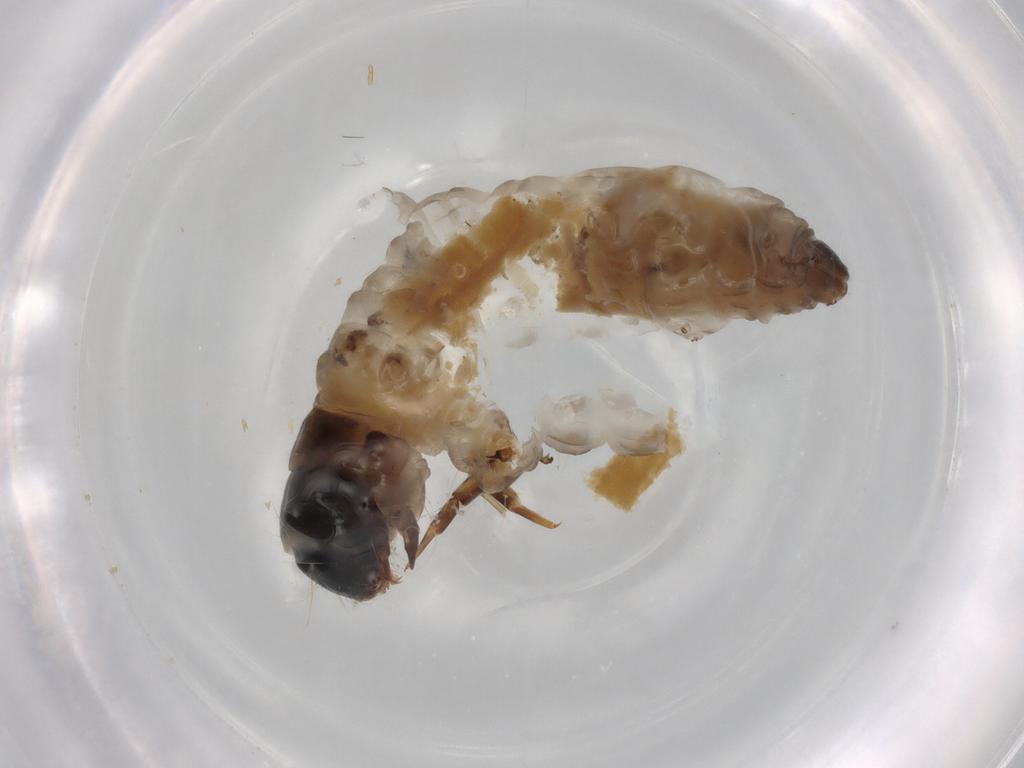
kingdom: Animalia
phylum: Arthropoda
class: Insecta
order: Lepidoptera
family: Psychidae
